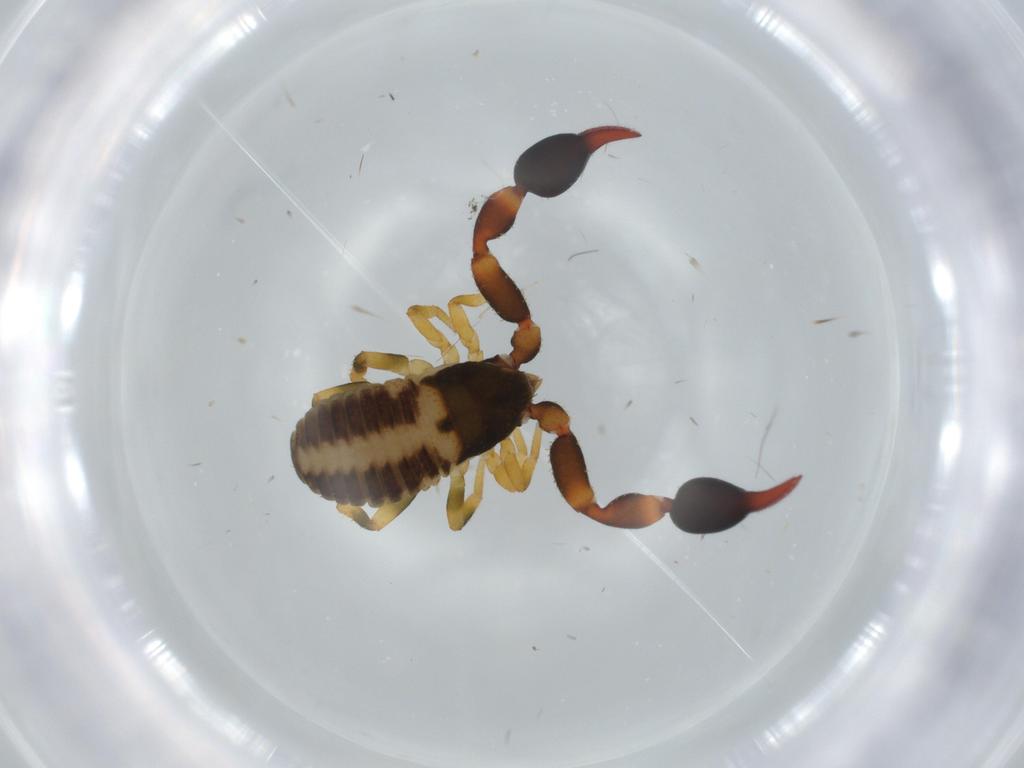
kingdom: Animalia
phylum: Arthropoda
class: Arachnida
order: Pseudoscorpiones
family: Chernetidae
